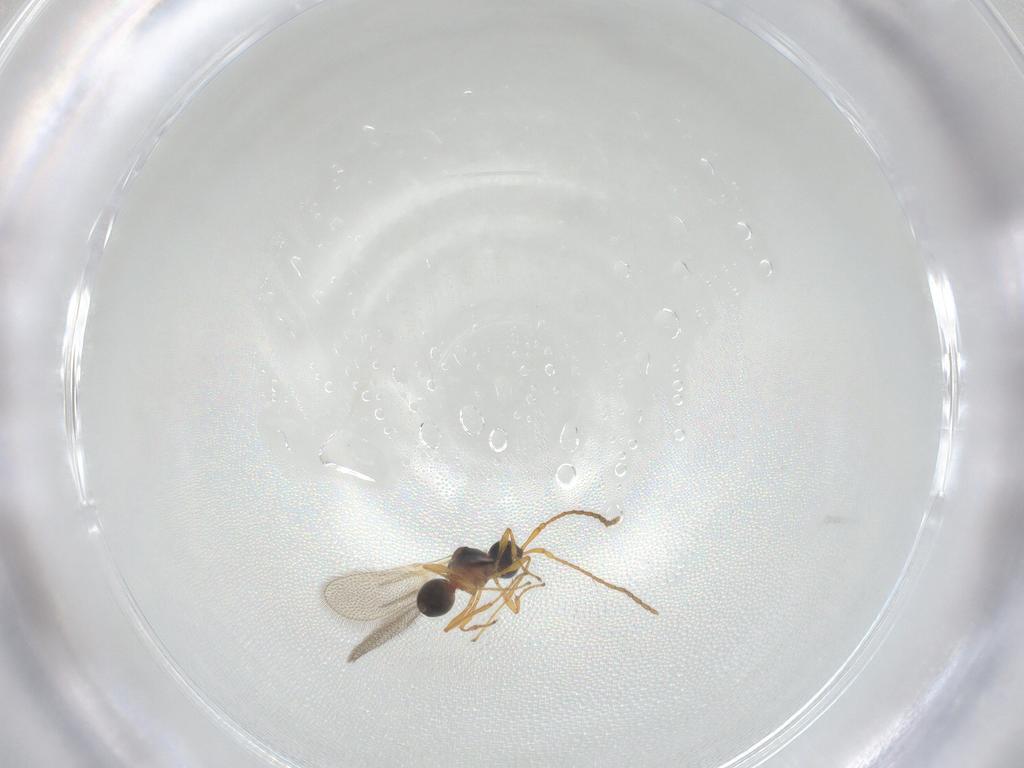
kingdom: Animalia
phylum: Arthropoda
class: Insecta
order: Hymenoptera
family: Diapriidae
